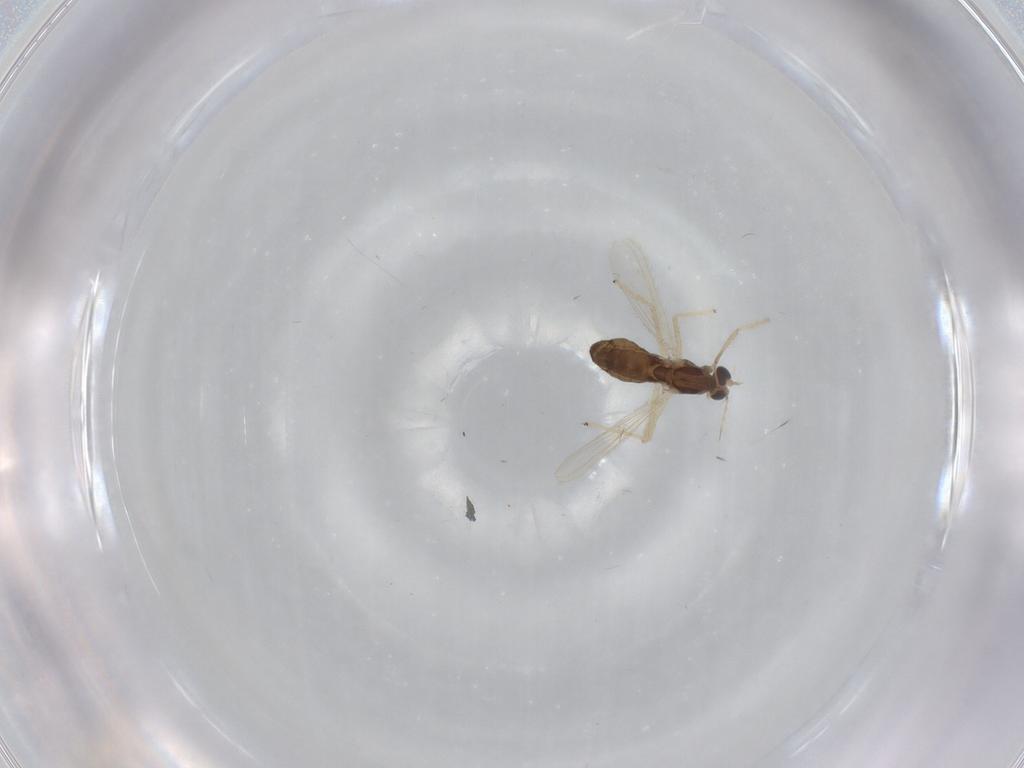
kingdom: Animalia
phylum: Arthropoda
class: Insecta
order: Diptera
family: Chironomidae
